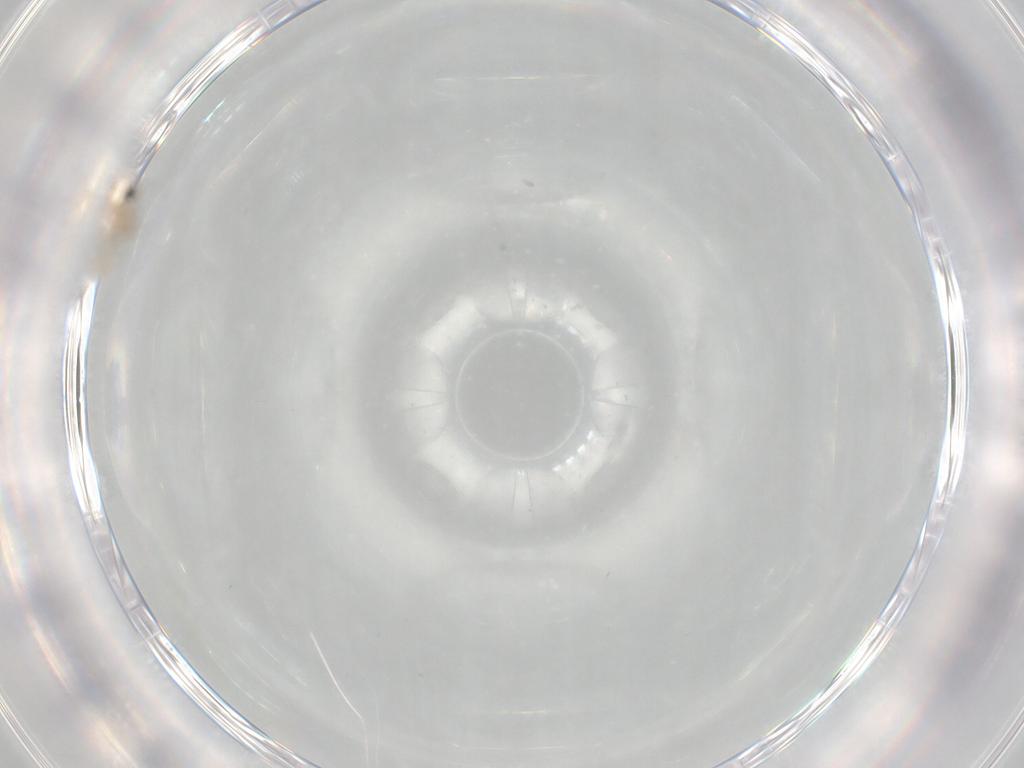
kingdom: Animalia
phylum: Arthropoda
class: Insecta
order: Diptera
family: Phoridae
